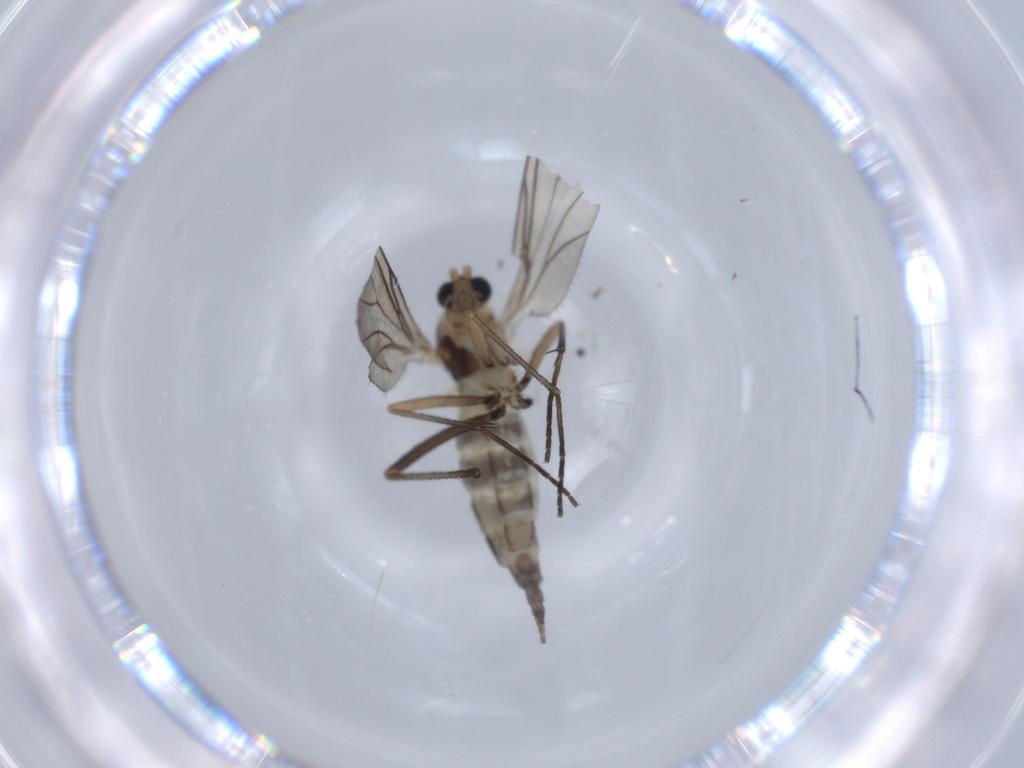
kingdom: Animalia
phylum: Arthropoda
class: Insecta
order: Diptera
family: Sciaridae
